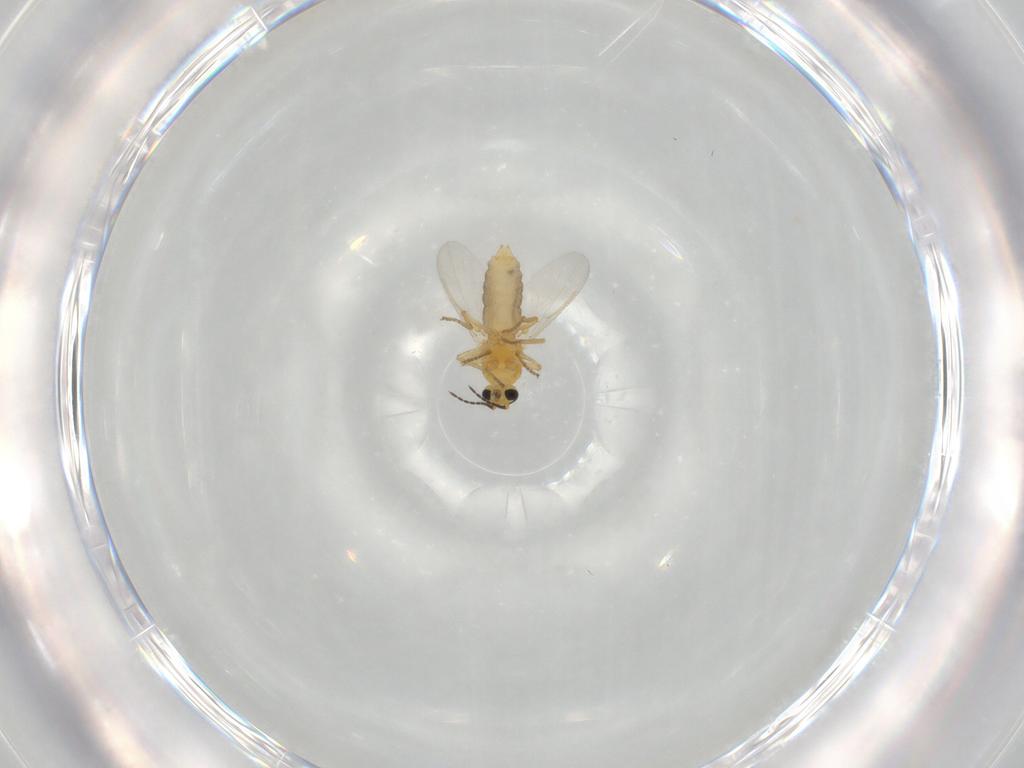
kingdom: Animalia
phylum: Arthropoda
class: Insecta
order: Diptera
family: Ceratopogonidae
